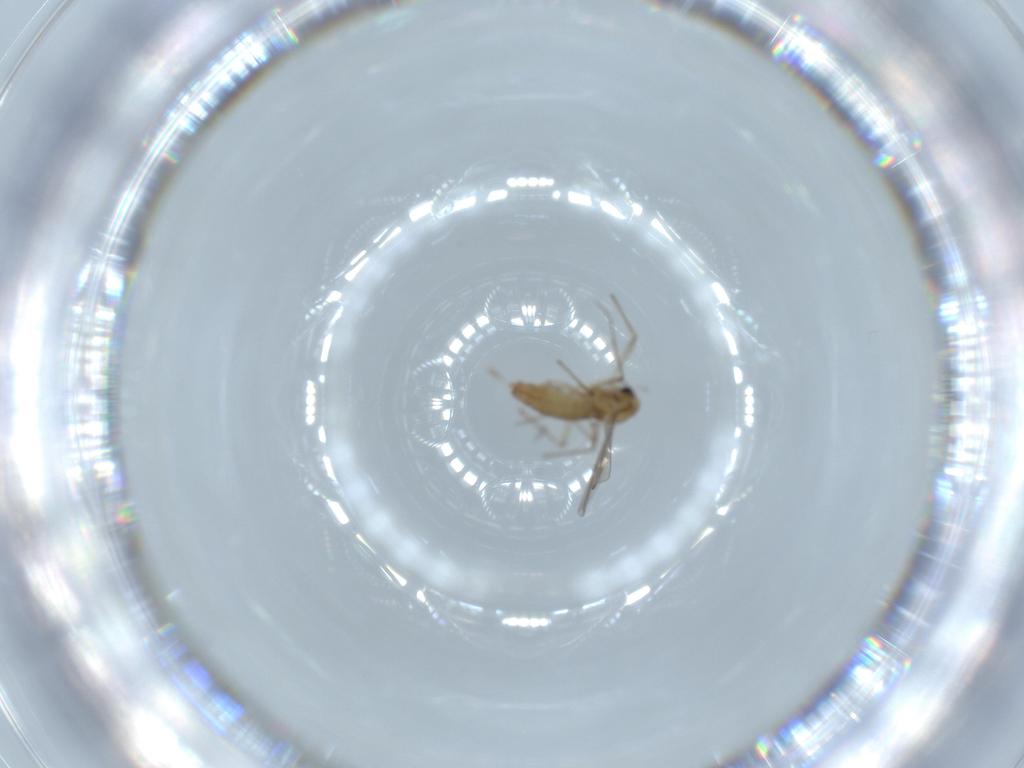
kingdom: Animalia
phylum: Arthropoda
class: Insecta
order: Diptera
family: Chironomidae
